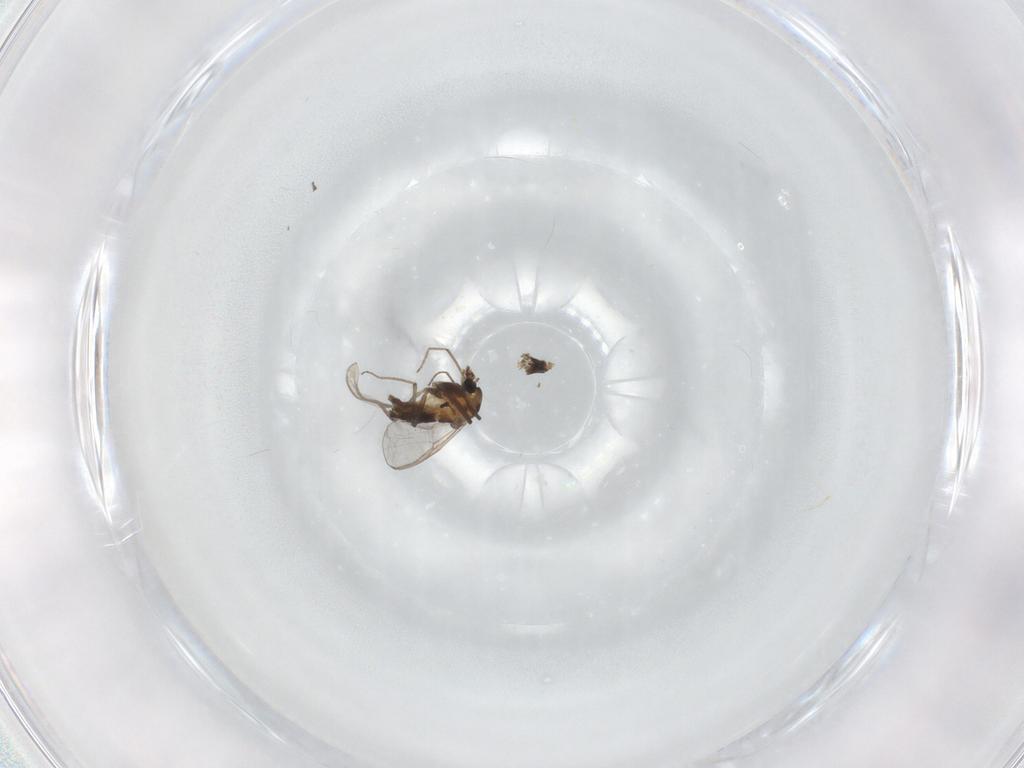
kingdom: Animalia
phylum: Arthropoda
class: Insecta
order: Diptera
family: Chironomidae
